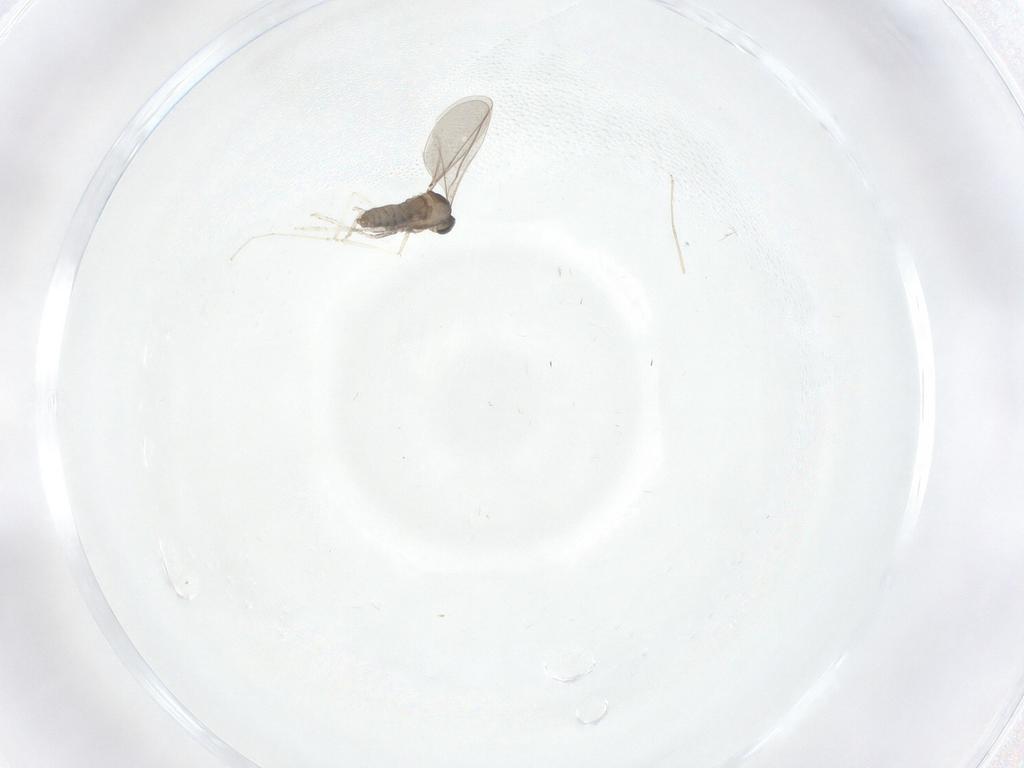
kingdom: Animalia
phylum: Arthropoda
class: Insecta
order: Diptera
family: Cecidomyiidae
